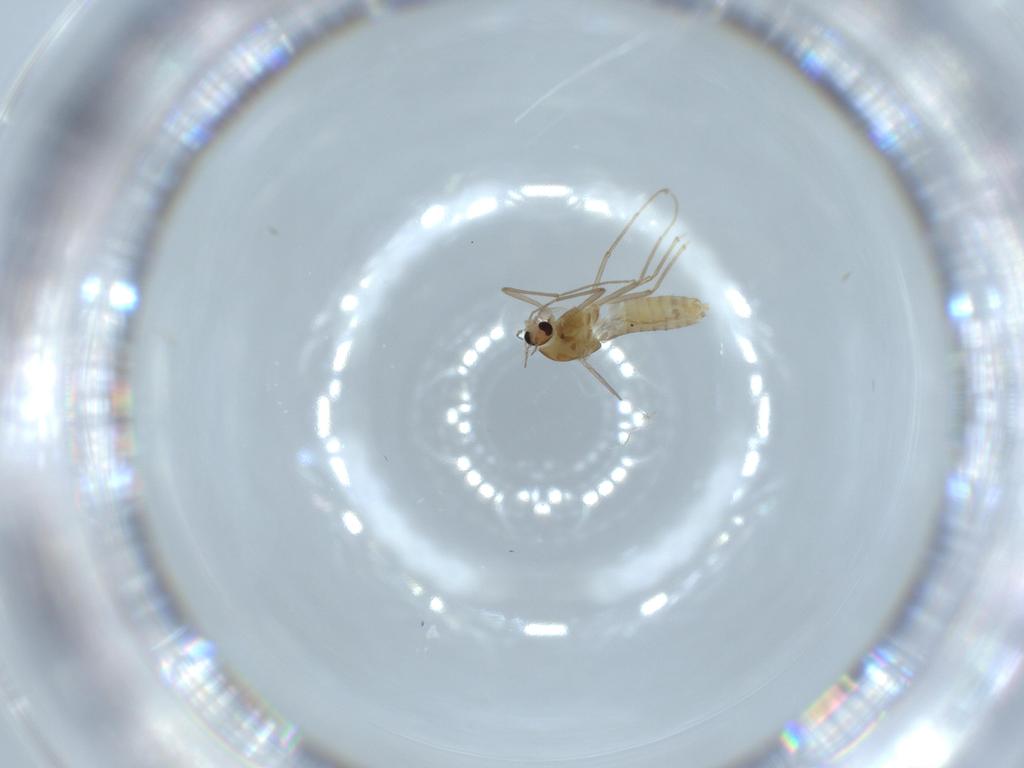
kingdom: Animalia
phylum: Arthropoda
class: Insecta
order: Diptera
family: Chironomidae
